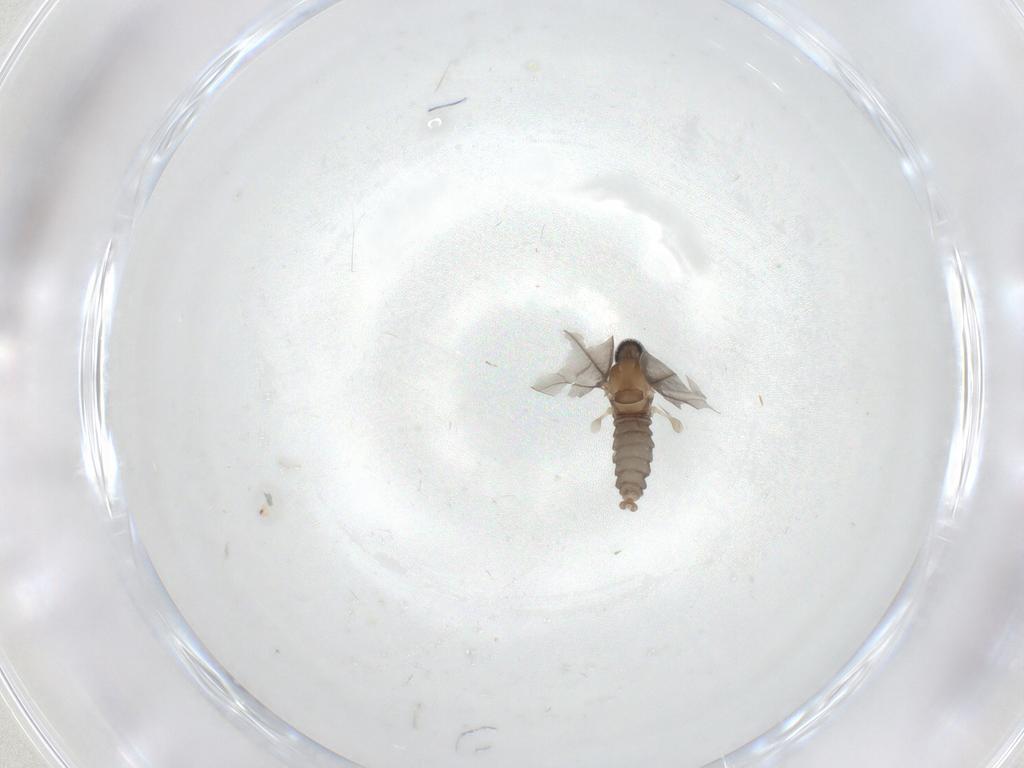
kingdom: Animalia
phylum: Arthropoda
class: Insecta
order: Diptera
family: Cecidomyiidae
